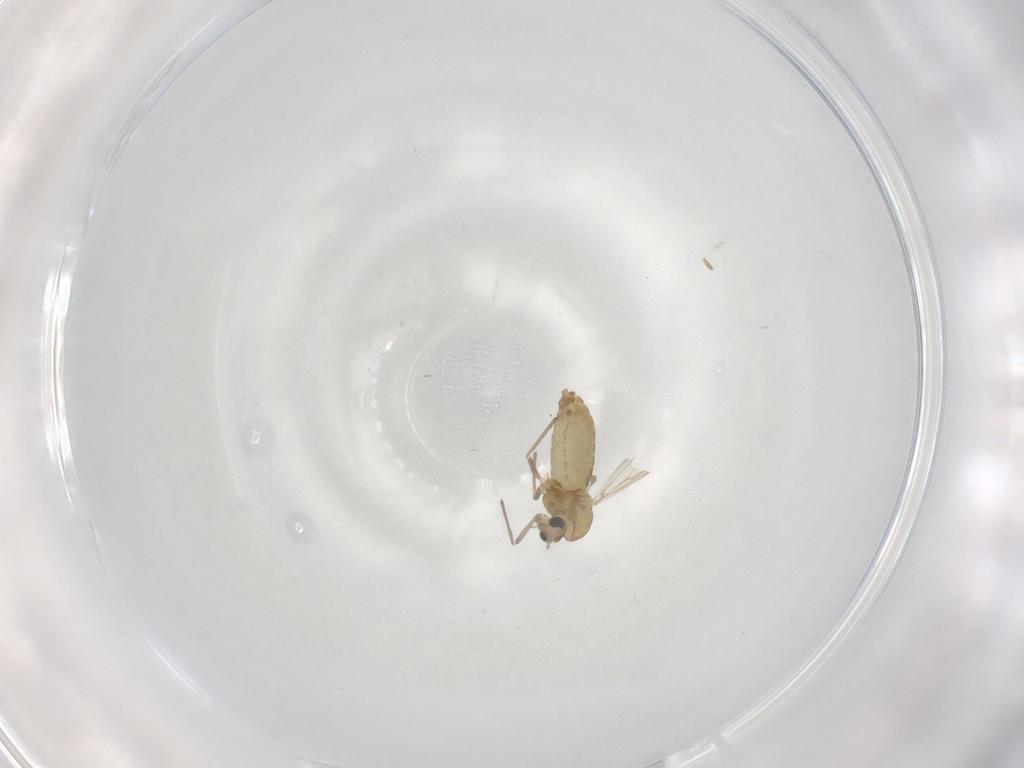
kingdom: Animalia
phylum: Arthropoda
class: Insecta
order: Diptera
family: Chironomidae
